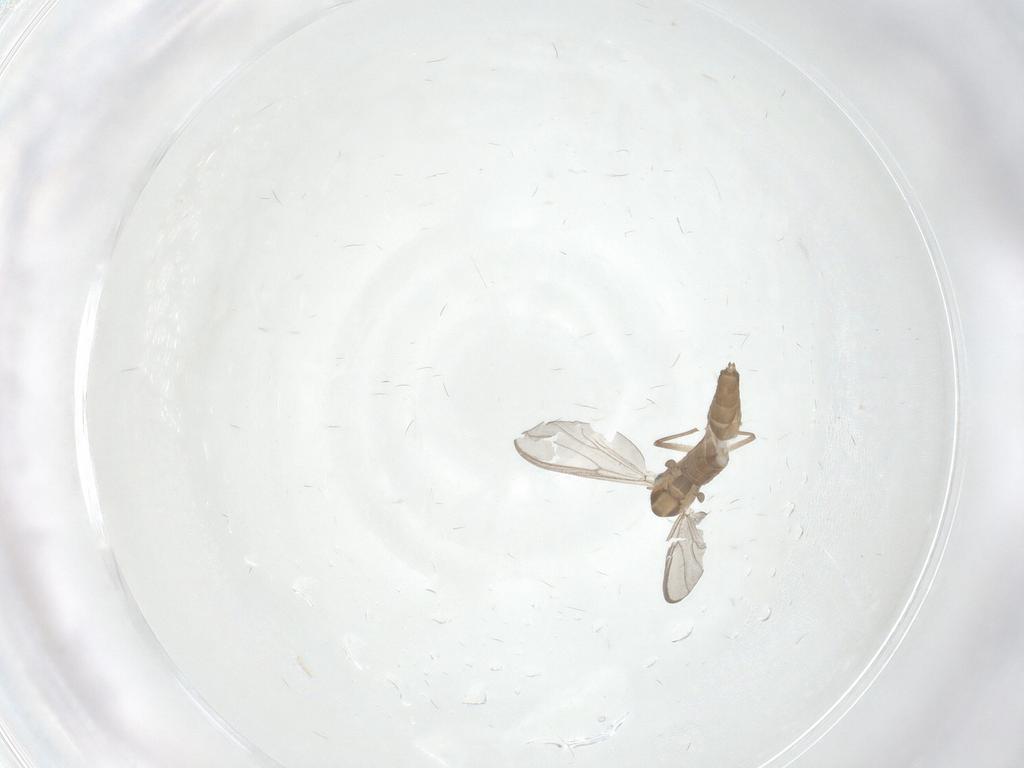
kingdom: Animalia
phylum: Arthropoda
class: Insecta
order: Diptera
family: Chironomidae
